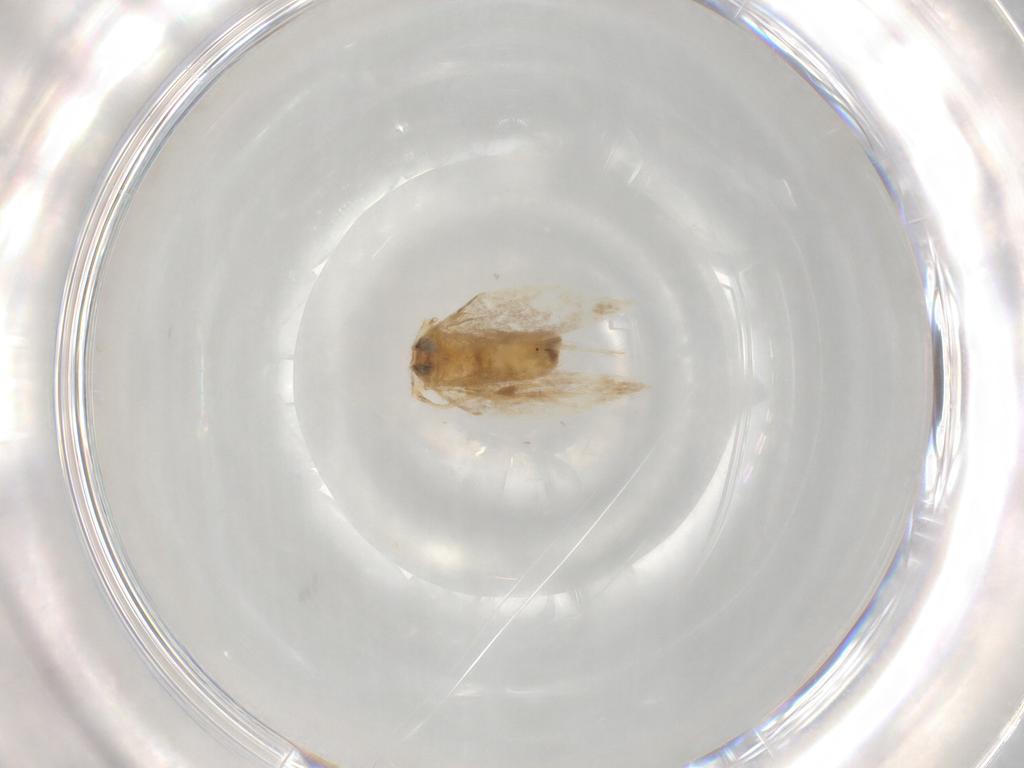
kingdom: Animalia
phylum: Arthropoda
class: Insecta
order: Lepidoptera
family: Opostegidae
